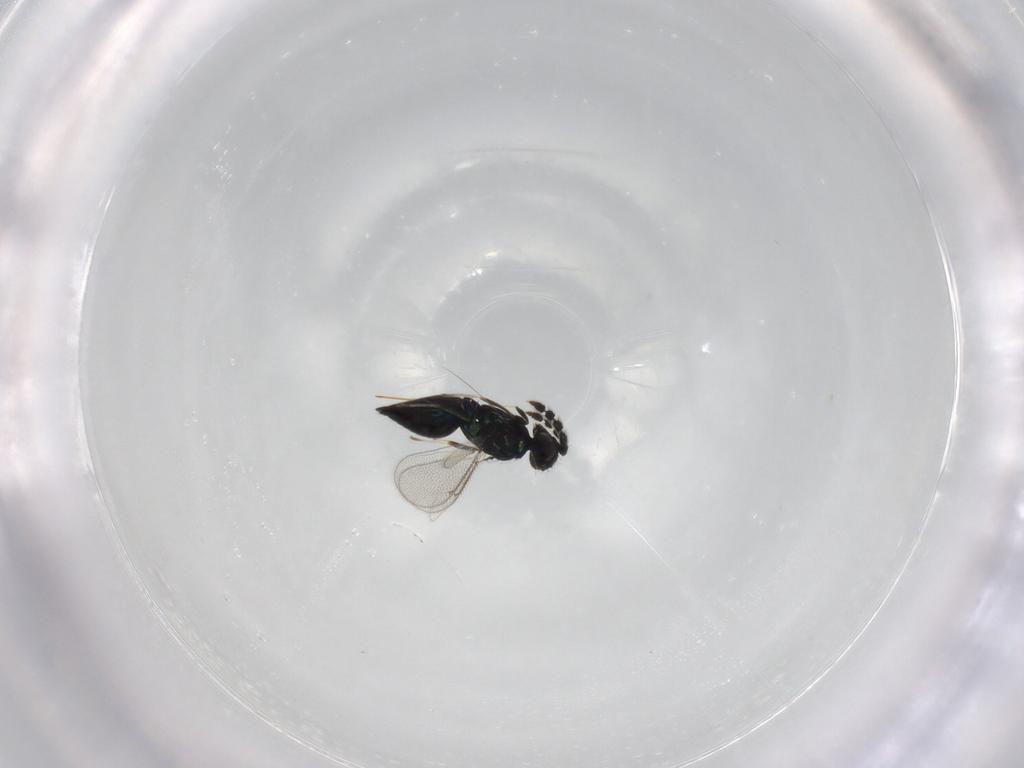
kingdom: Animalia
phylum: Arthropoda
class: Insecta
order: Hymenoptera
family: Eulophidae
